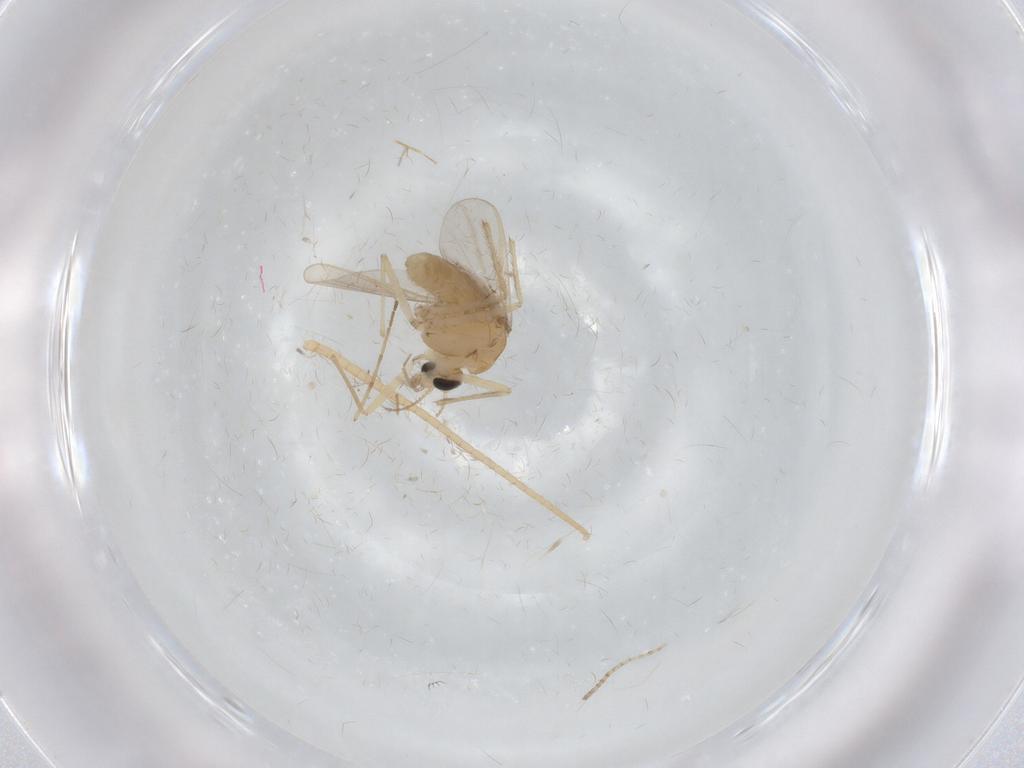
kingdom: Animalia
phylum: Arthropoda
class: Insecta
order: Diptera
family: Chironomidae
